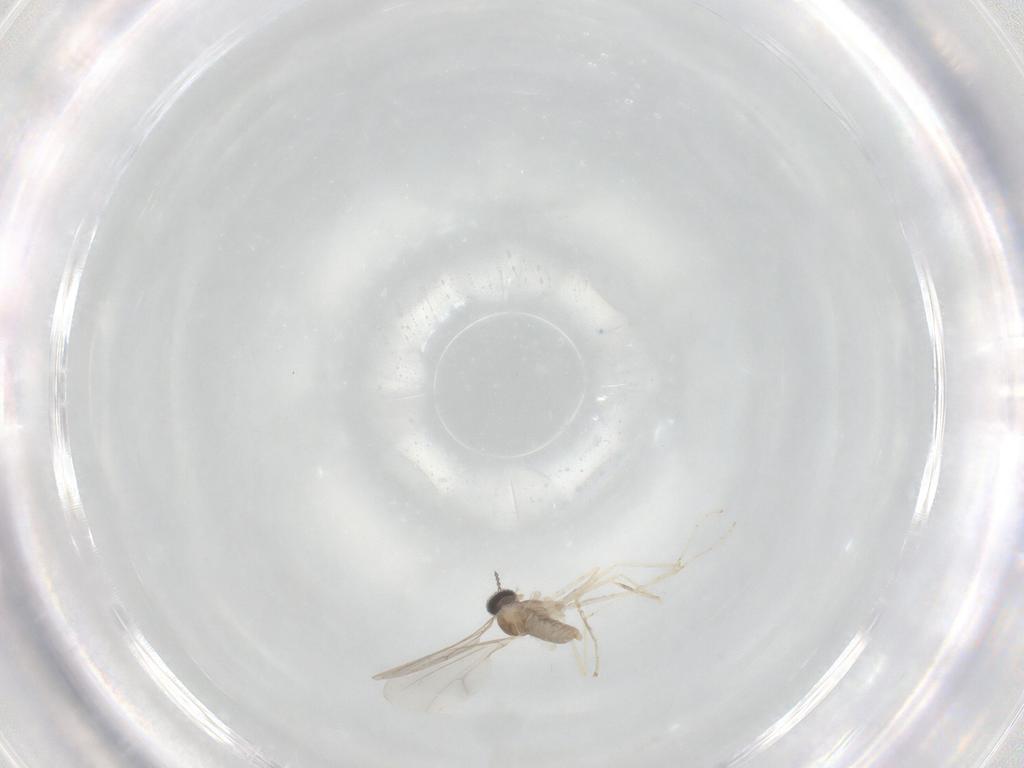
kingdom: Animalia
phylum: Arthropoda
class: Insecta
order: Diptera
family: Cecidomyiidae
